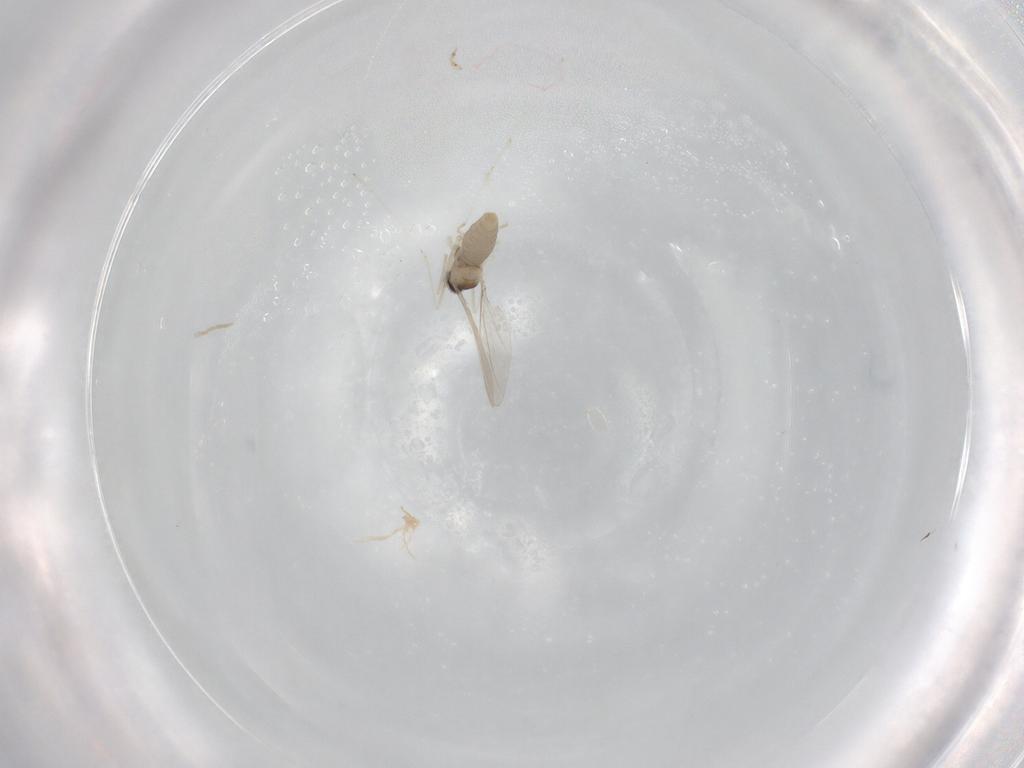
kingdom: Animalia
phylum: Arthropoda
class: Insecta
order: Diptera
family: Cecidomyiidae
